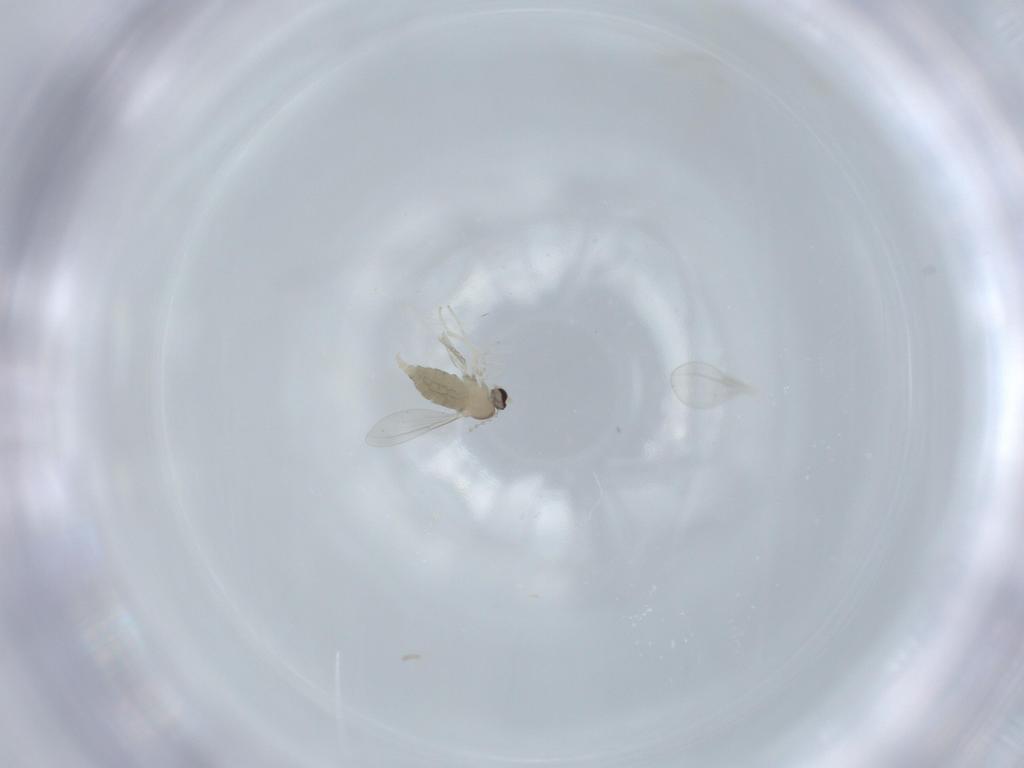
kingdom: Animalia
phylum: Arthropoda
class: Insecta
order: Diptera
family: Cecidomyiidae
